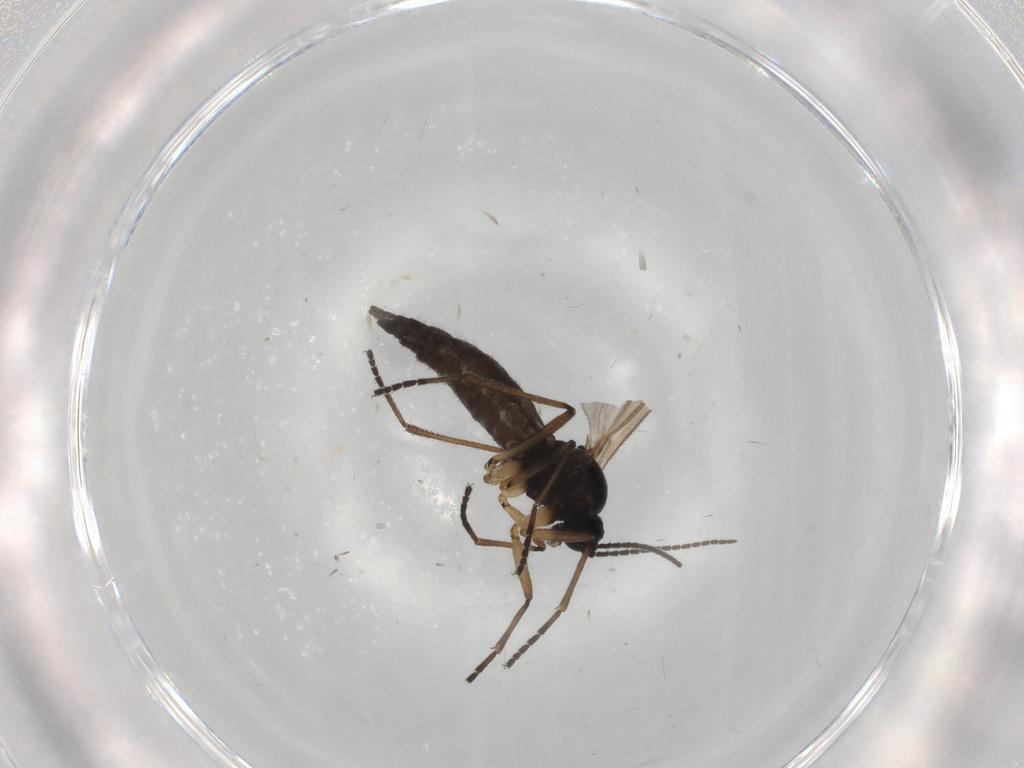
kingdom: Animalia
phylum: Arthropoda
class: Insecta
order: Diptera
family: Sciaridae
